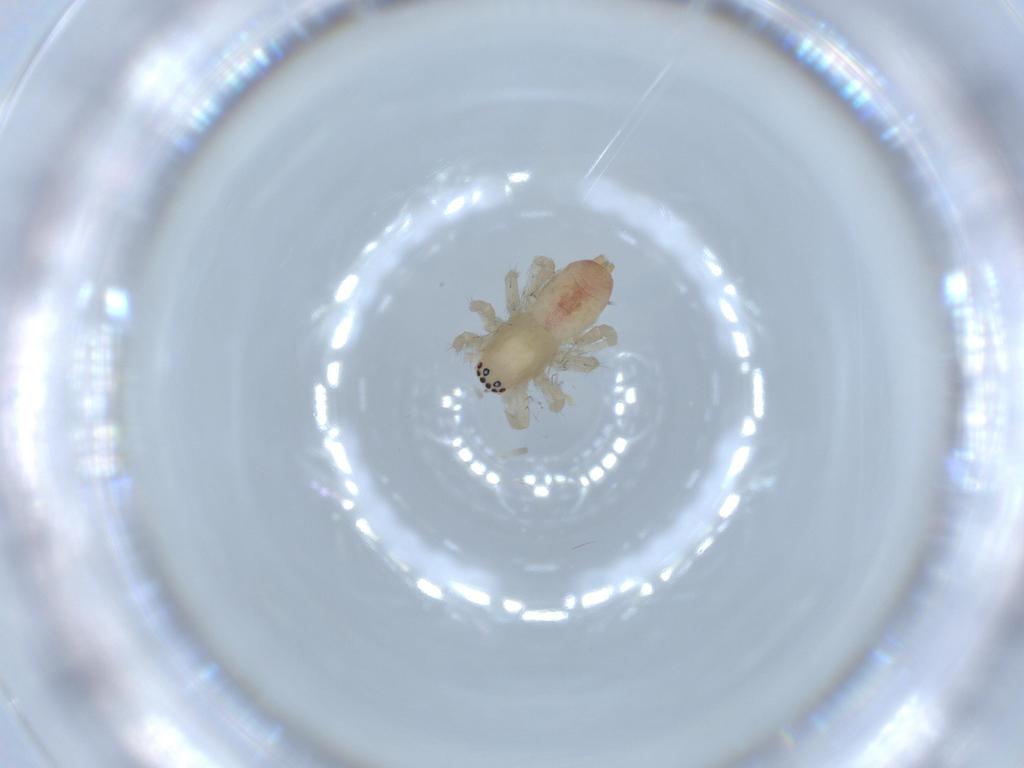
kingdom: Animalia
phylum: Arthropoda
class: Arachnida
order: Araneae
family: Clubionidae
